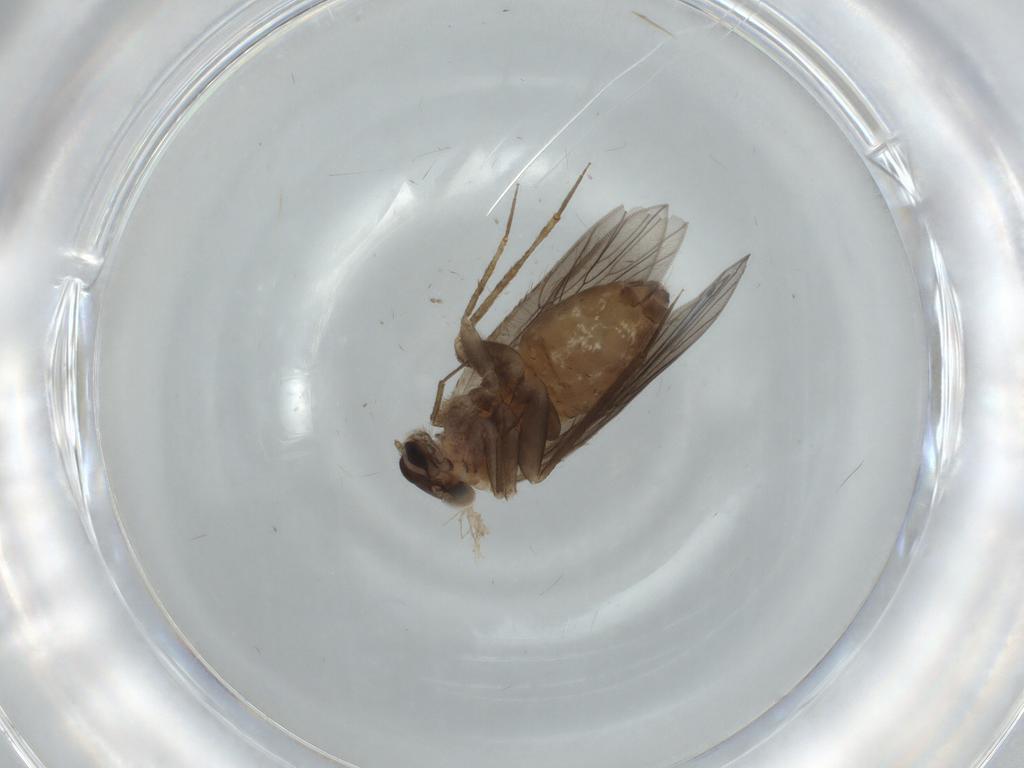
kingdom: Animalia
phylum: Arthropoda
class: Insecta
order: Psocodea
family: Lepidopsocidae
